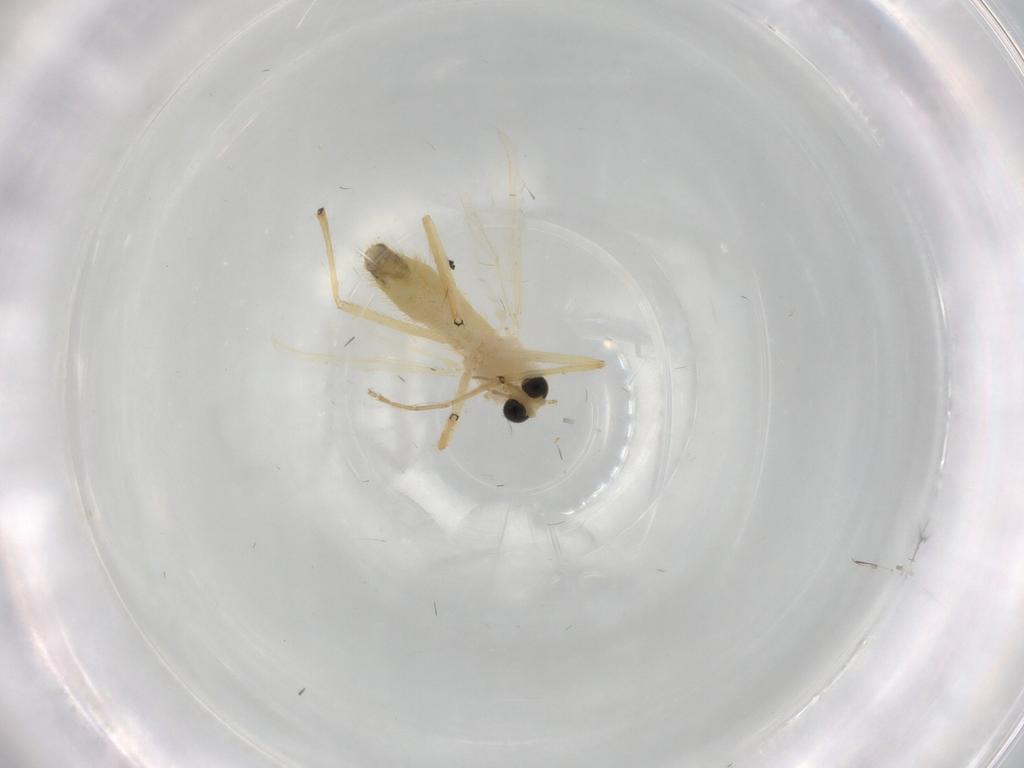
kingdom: Animalia
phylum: Arthropoda
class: Insecta
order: Diptera
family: Chironomidae
